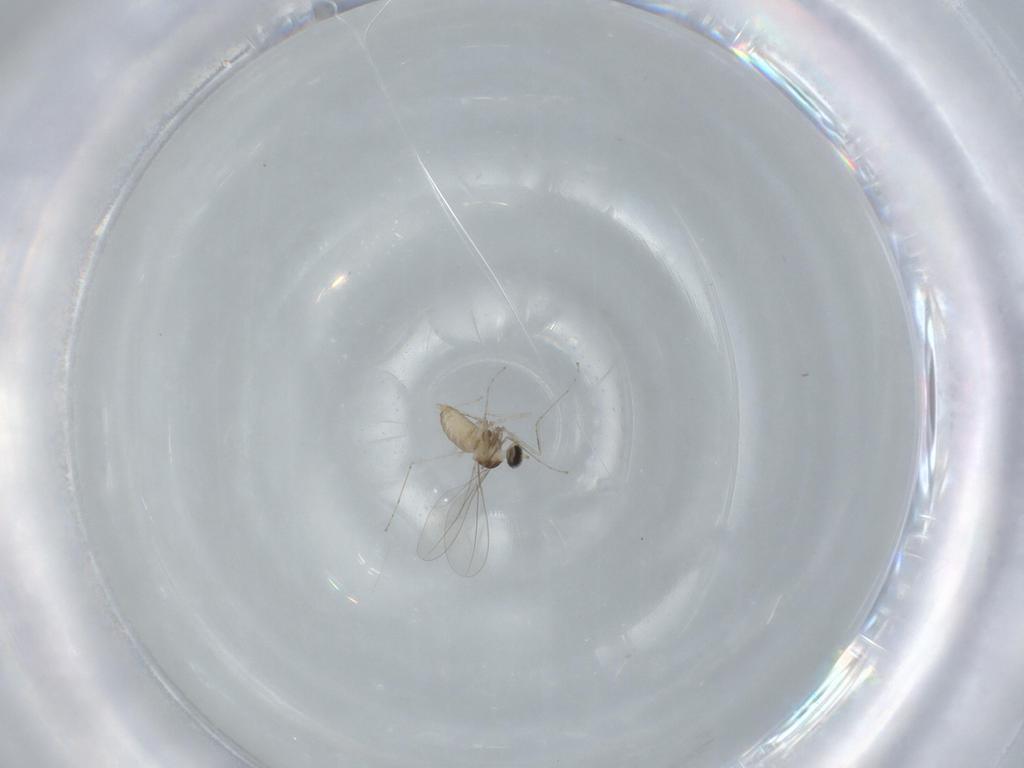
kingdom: Animalia
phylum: Arthropoda
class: Insecta
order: Diptera
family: Cecidomyiidae
